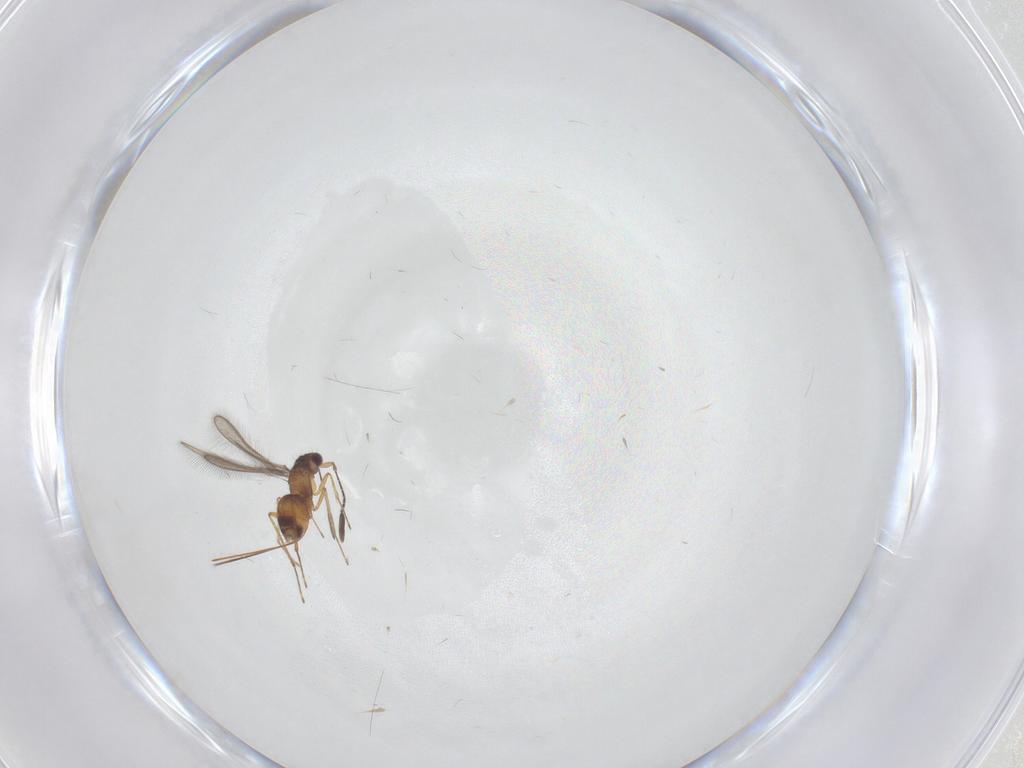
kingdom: Animalia
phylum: Arthropoda
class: Insecta
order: Hymenoptera
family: Mymaridae
